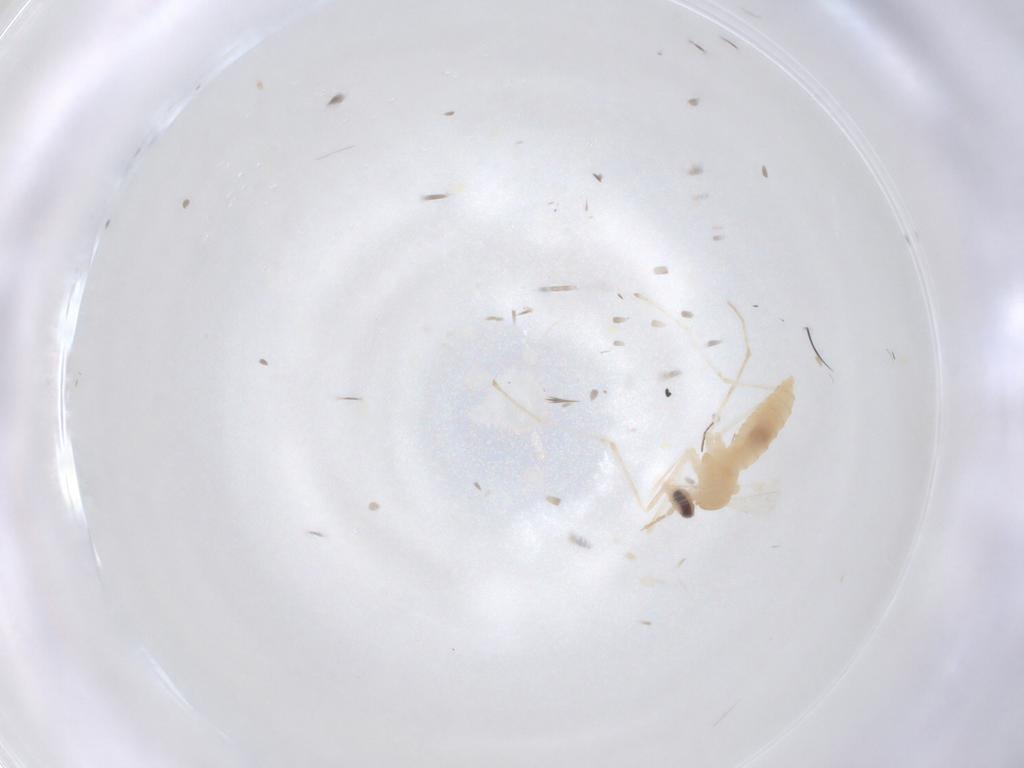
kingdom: Animalia
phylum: Arthropoda
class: Insecta
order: Diptera
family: Cecidomyiidae
